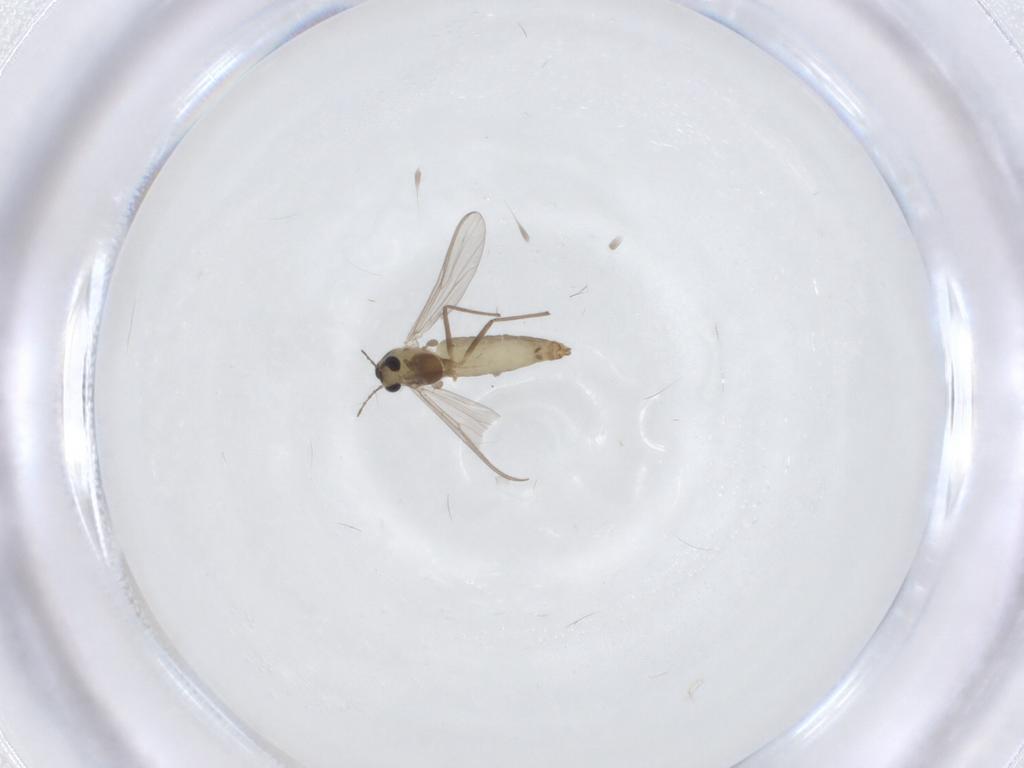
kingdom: Animalia
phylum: Arthropoda
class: Insecta
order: Diptera
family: Chironomidae
